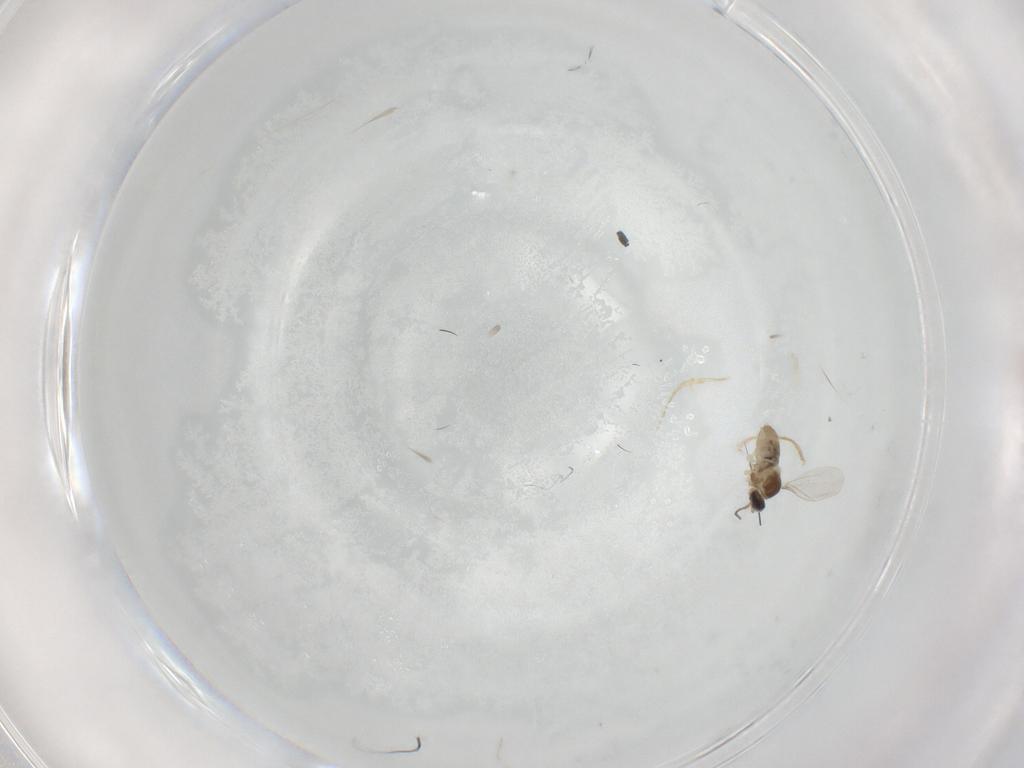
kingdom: Animalia
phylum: Arthropoda
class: Insecta
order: Diptera
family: Cecidomyiidae
